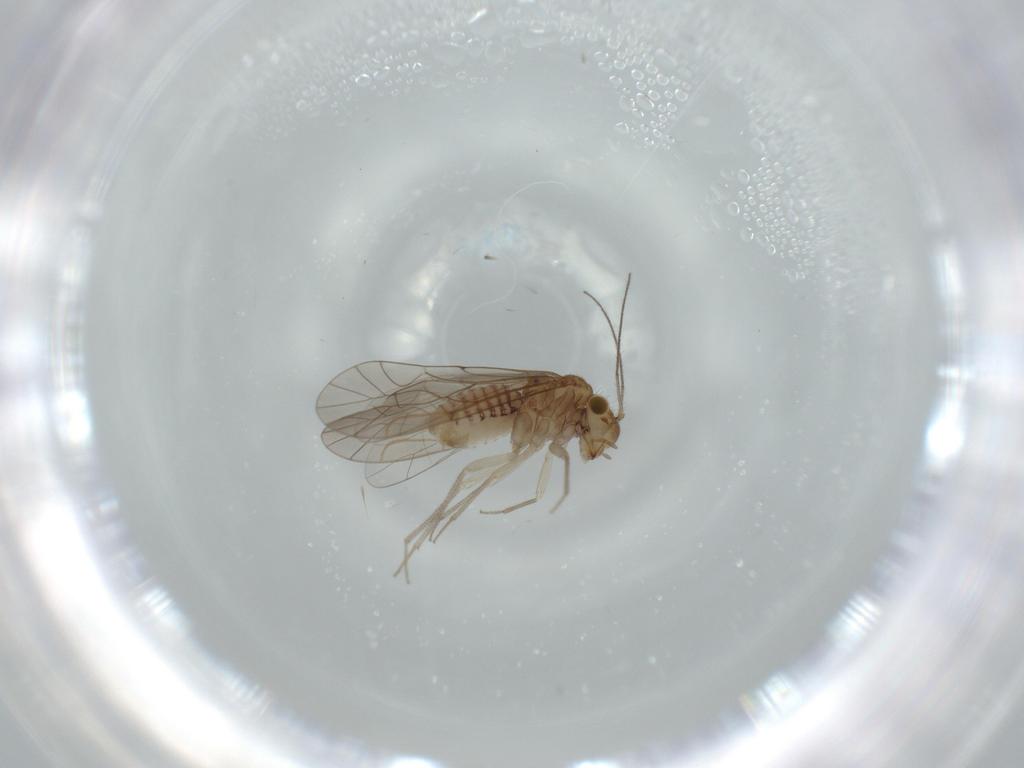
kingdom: Animalia
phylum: Arthropoda
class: Insecta
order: Psocodea
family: Lachesillidae
